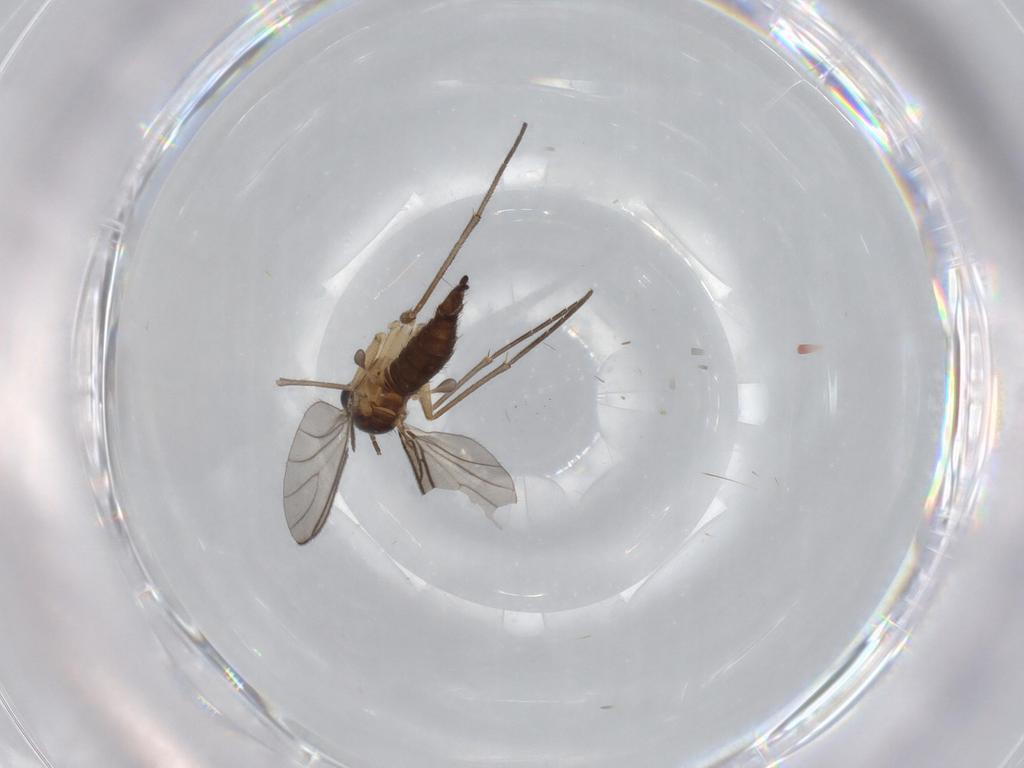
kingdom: Animalia
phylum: Arthropoda
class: Insecta
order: Diptera
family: Sciaridae
